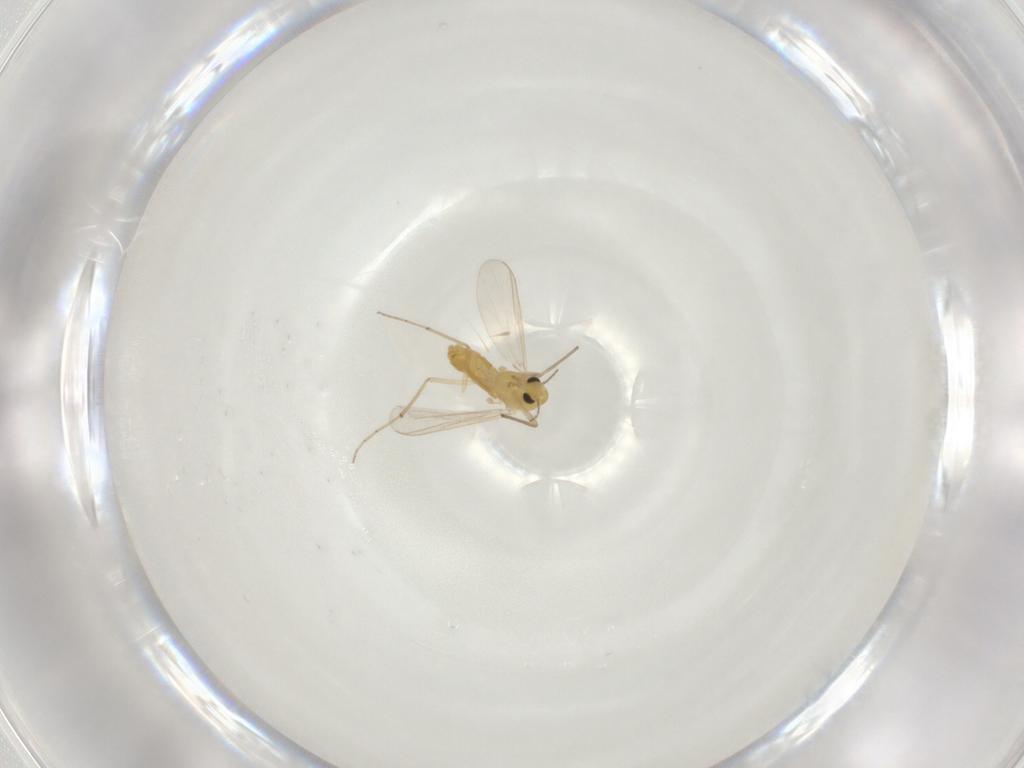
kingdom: Animalia
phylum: Arthropoda
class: Insecta
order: Diptera
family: Chironomidae
